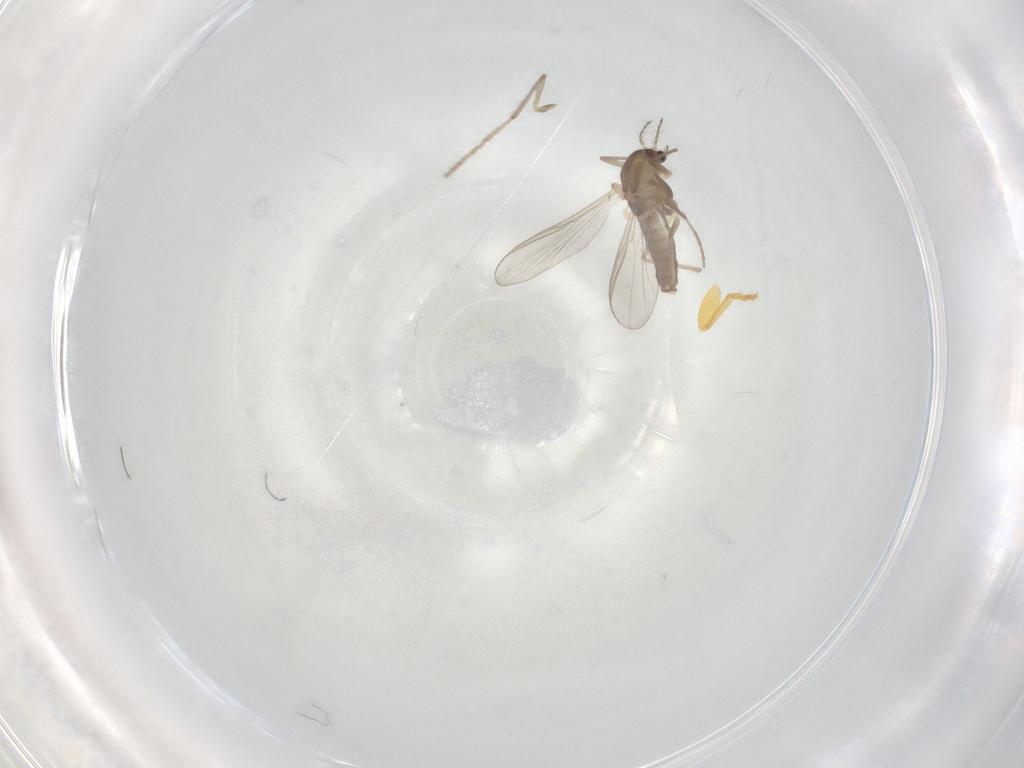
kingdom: Animalia
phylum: Arthropoda
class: Insecta
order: Diptera
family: Chironomidae
